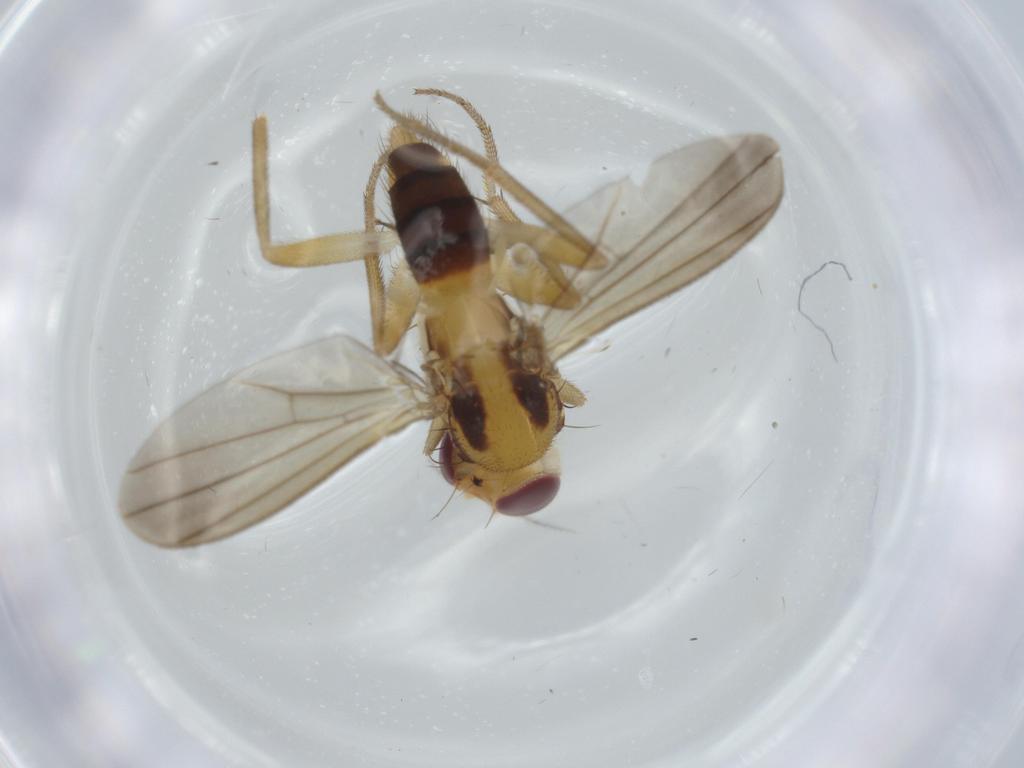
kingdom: Animalia
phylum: Arthropoda
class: Insecta
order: Diptera
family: Clusiidae
